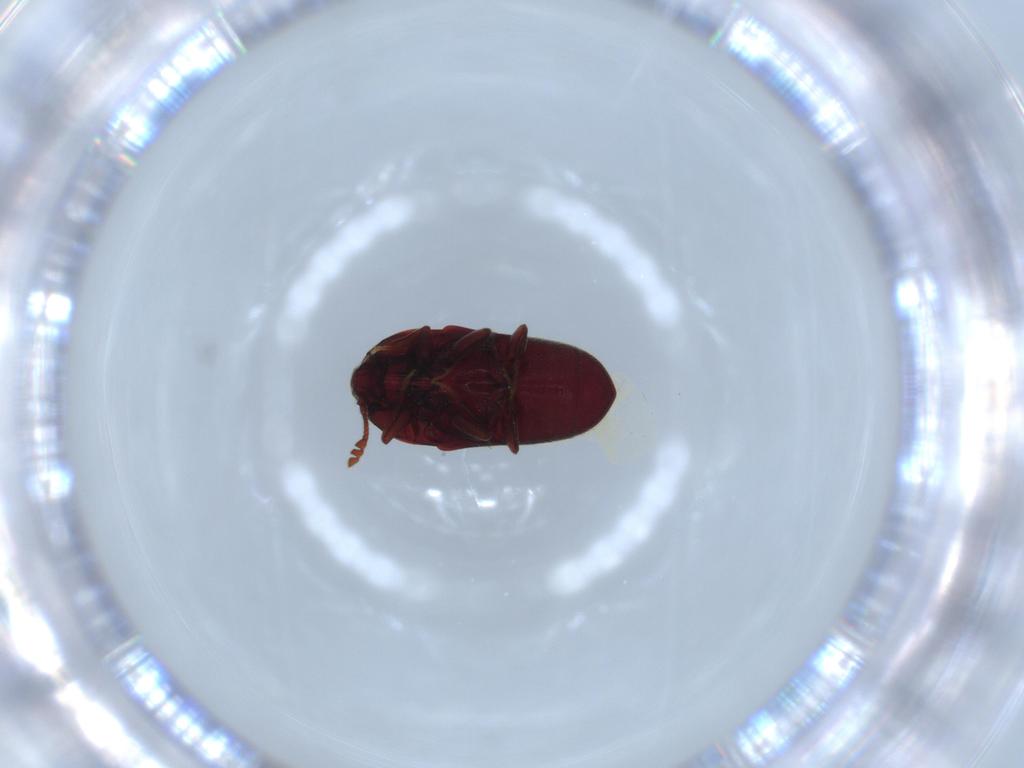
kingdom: Animalia
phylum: Arthropoda
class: Insecta
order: Coleoptera
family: Throscidae
